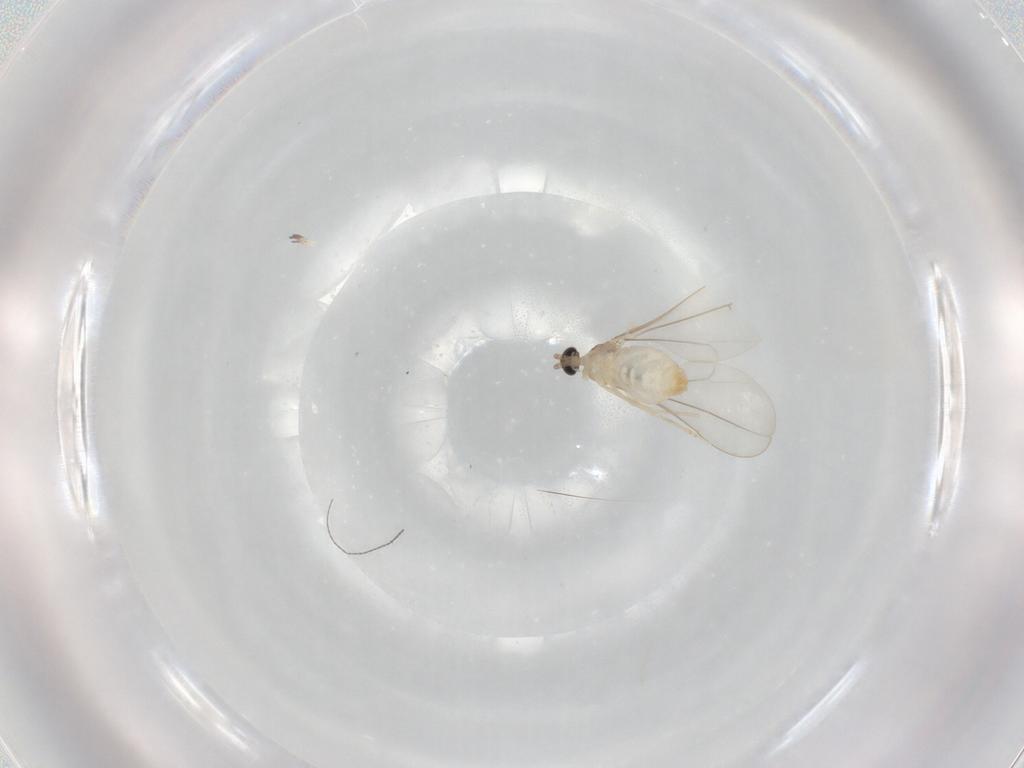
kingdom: Animalia
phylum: Arthropoda
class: Insecta
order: Diptera
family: Cecidomyiidae
